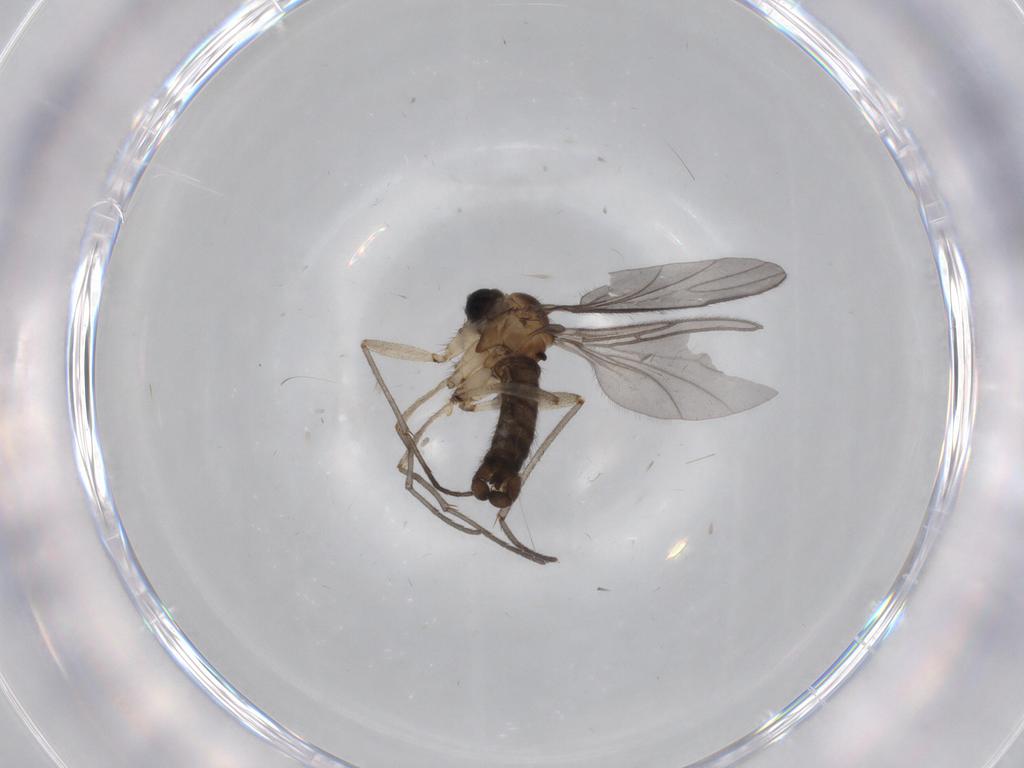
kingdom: Animalia
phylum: Arthropoda
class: Insecta
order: Diptera
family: Sciaridae
